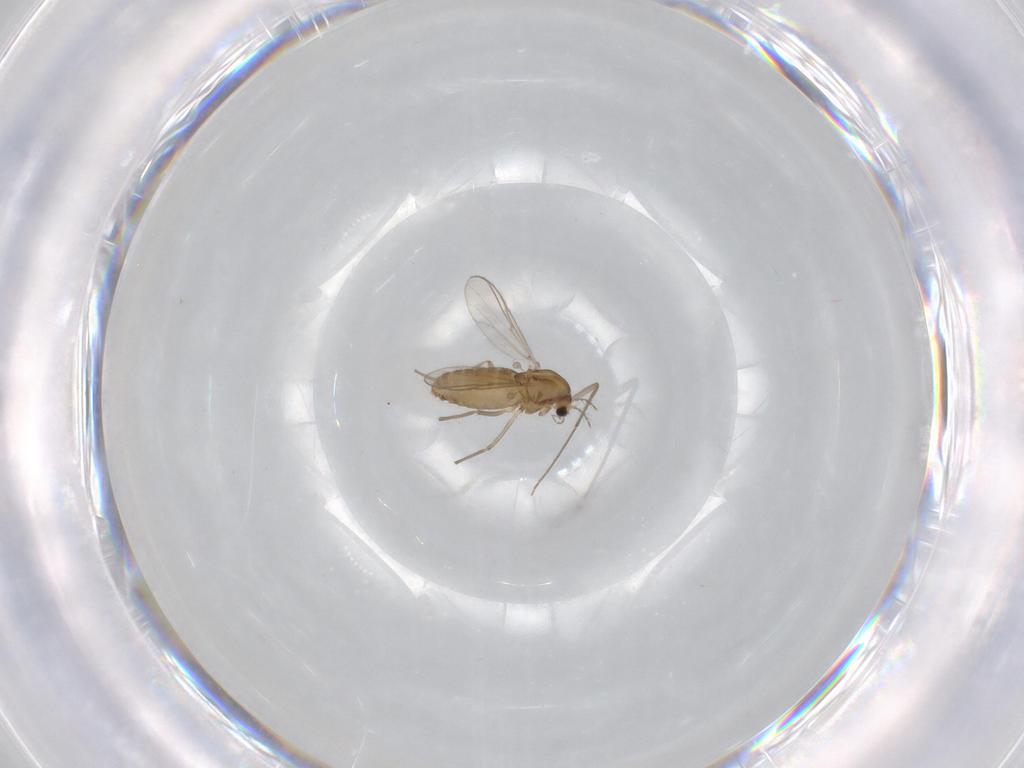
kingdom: Animalia
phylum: Arthropoda
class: Insecta
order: Diptera
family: Chironomidae
